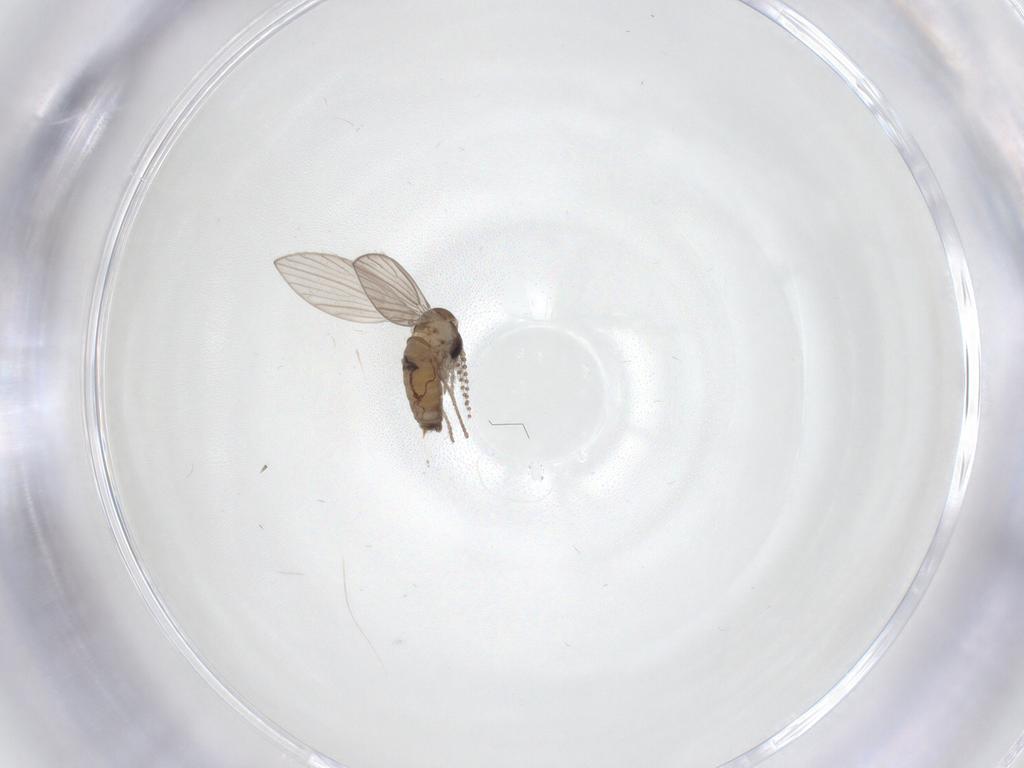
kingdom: Animalia
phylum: Arthropoda
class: Insecta
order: Diptera
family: Psychodidae
